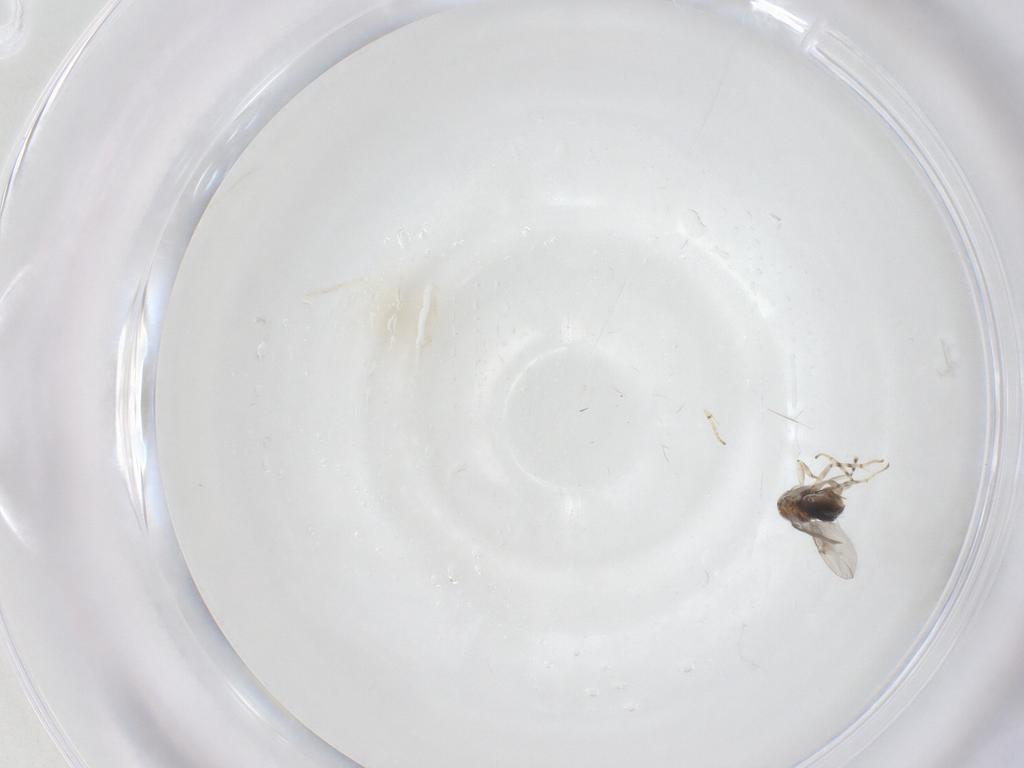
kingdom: Animalia
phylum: Arthropoda
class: Insecta
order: Hymenoptera
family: Encyrtidae
